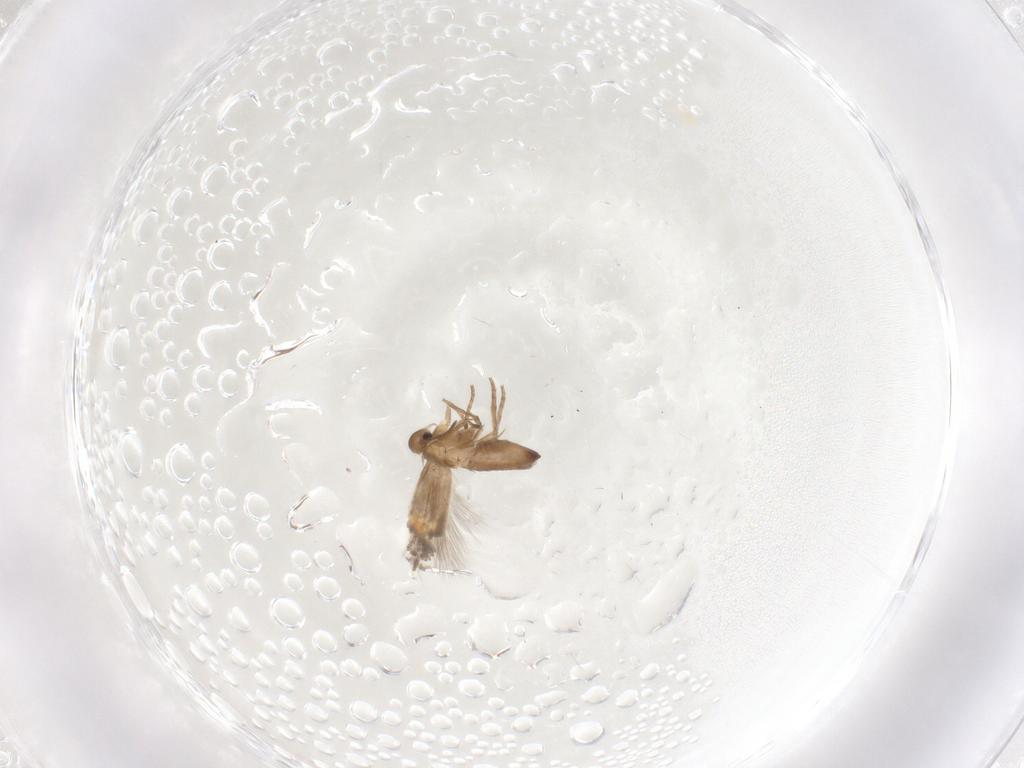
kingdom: Animalia
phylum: Arthropoda
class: Insecta
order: Lepidoptera
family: Heliozelidae
